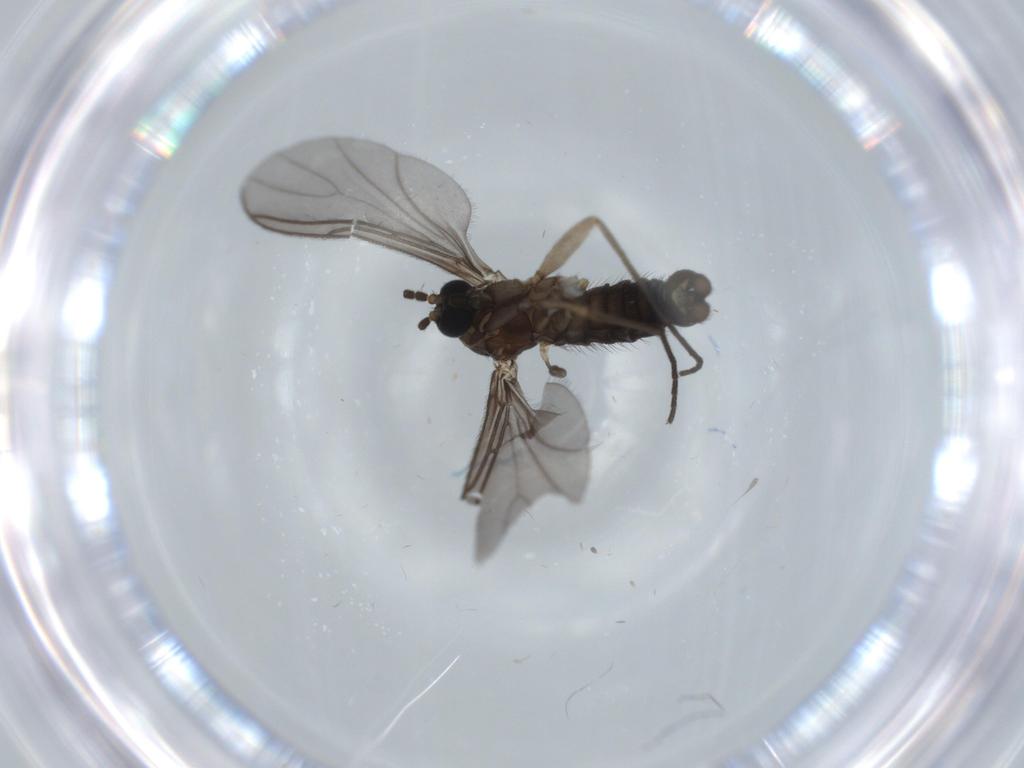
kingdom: Animalia
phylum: Arthropoda
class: Insecta
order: Diptera
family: Sciaridae
